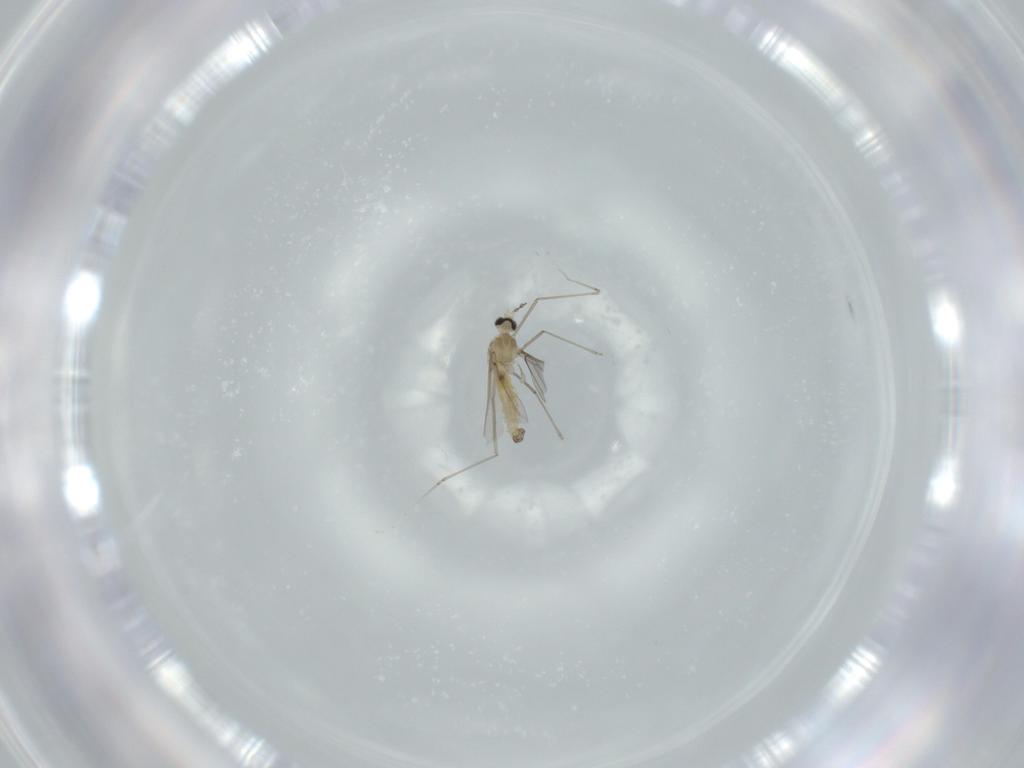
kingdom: Animalia
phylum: Arthropoda
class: Insecta
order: Diptera
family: Cecidomyiidae
